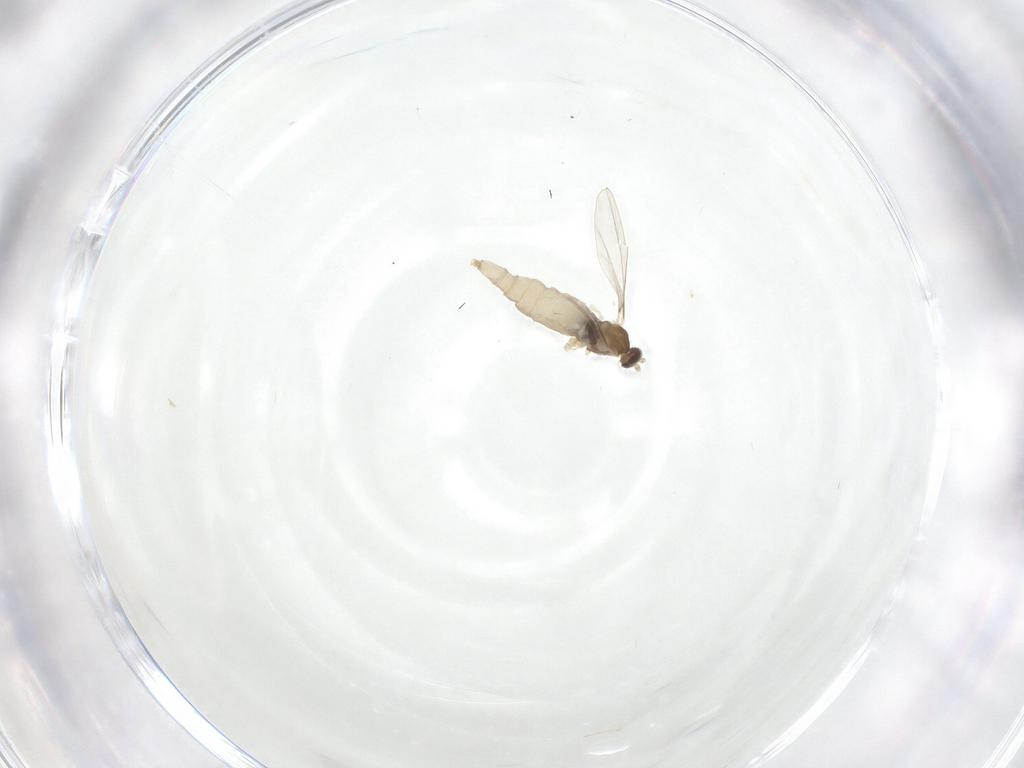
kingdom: Animalia
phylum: Arthropoda
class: Insecta
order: Diptera
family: Cecidomyiidae
